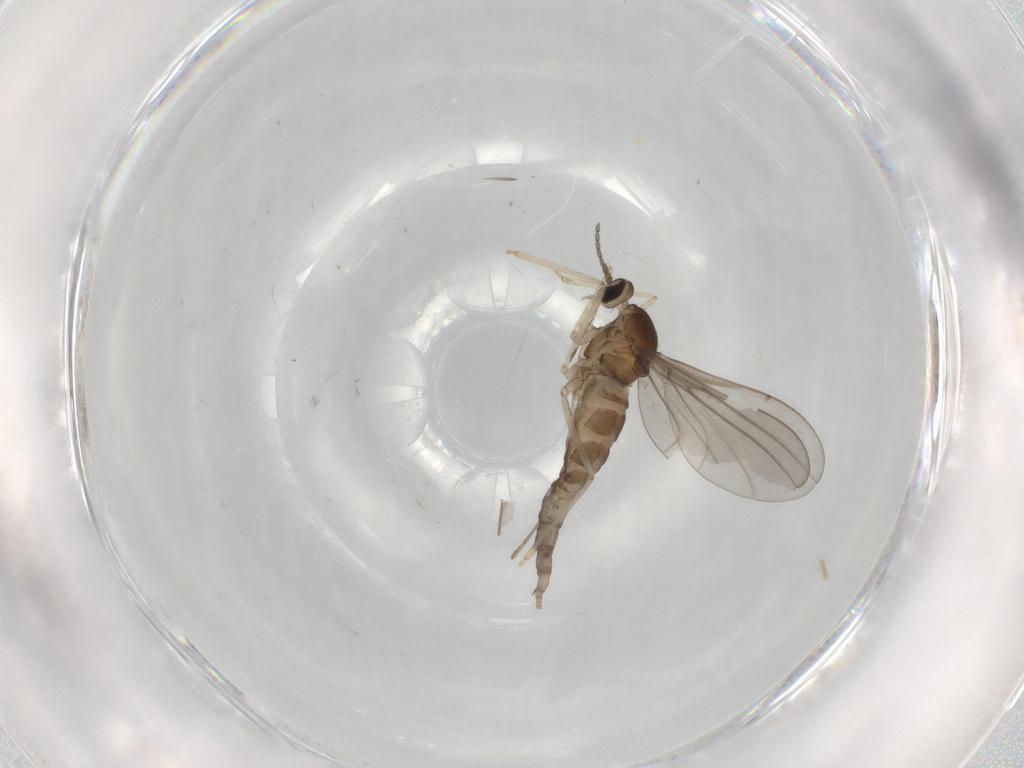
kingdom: Animalia
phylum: Arthropoda
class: Insecta
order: Diptera
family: Cecidomyiidae
